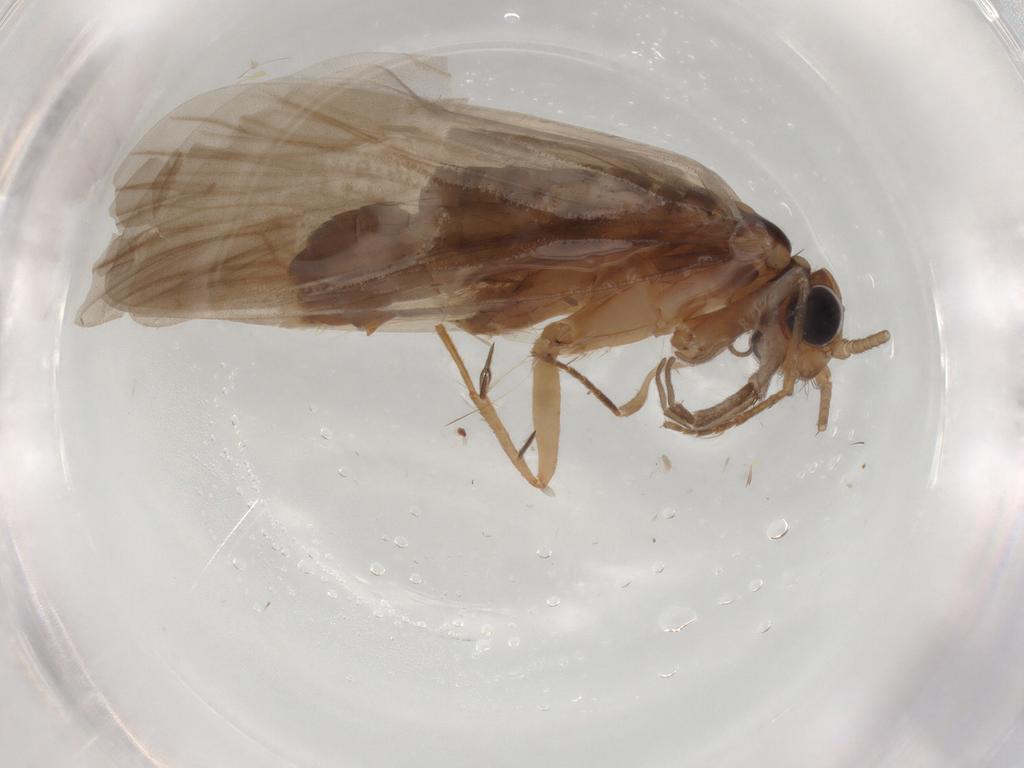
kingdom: Animalia
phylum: Arthropoda
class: Insecta
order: Trichoptera
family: Philopotamidae
